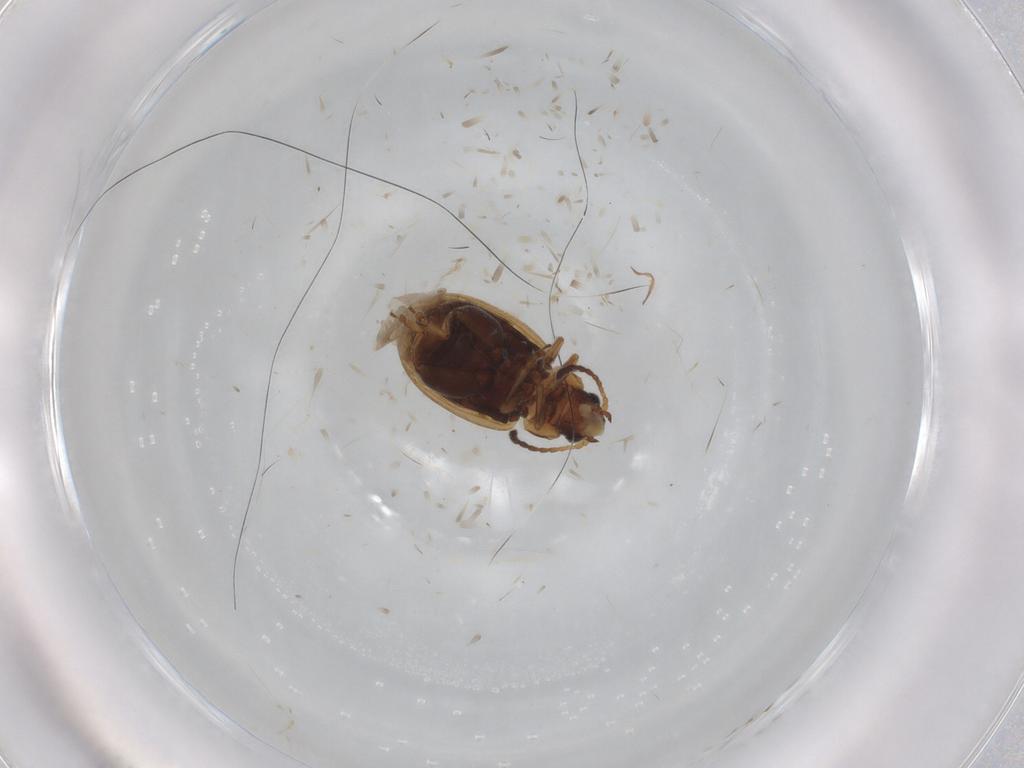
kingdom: Animalia
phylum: Arthropoda
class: Insecta
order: Coleoptera
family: Chrysomelidae
